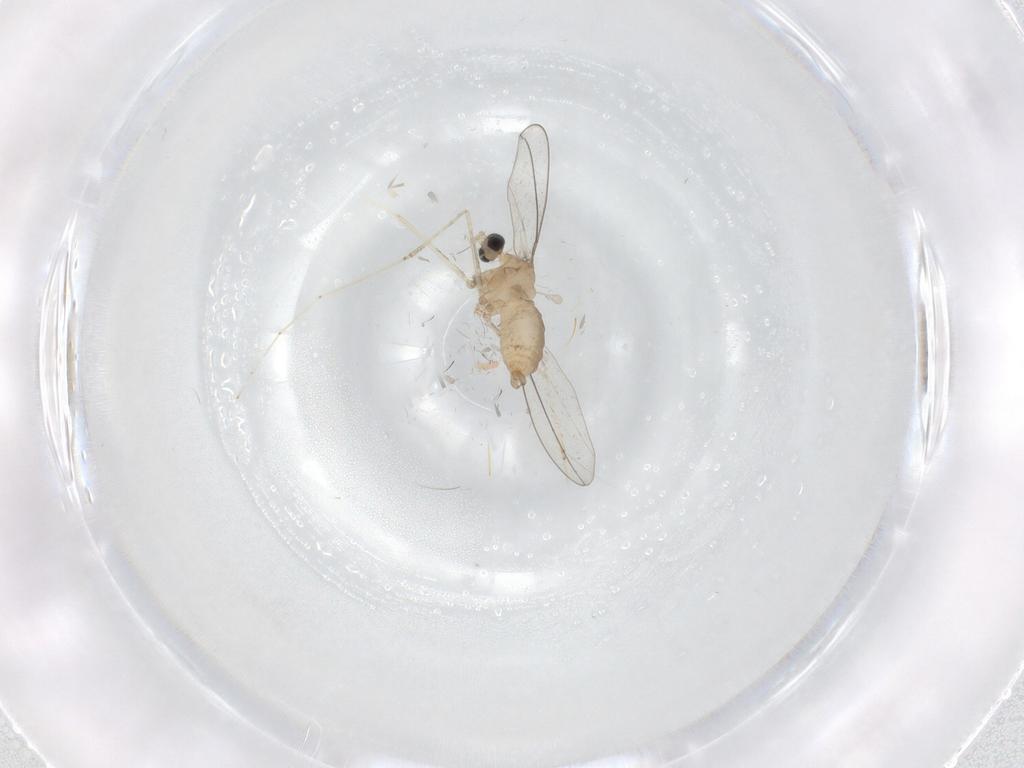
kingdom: Animalia
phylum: Arthropoda
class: Insecta
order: Diptera
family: Cecidomyiidae
